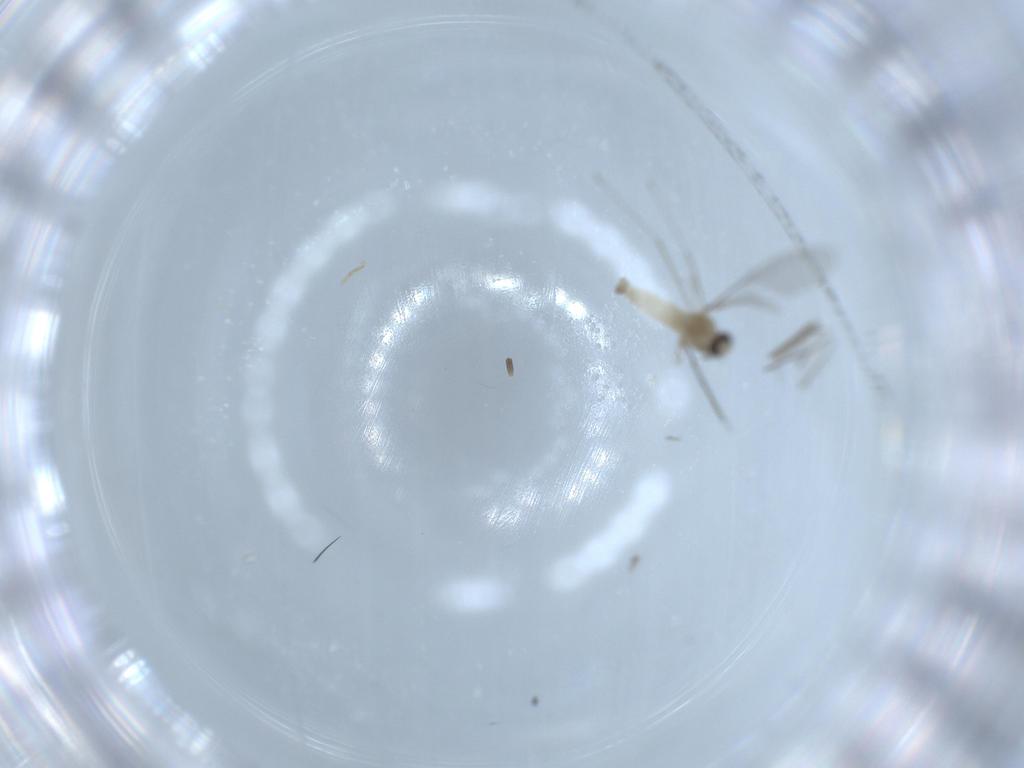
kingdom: Animalia
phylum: Arthropoda
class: Insecta
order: Diptera
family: Cecidomyiidae
